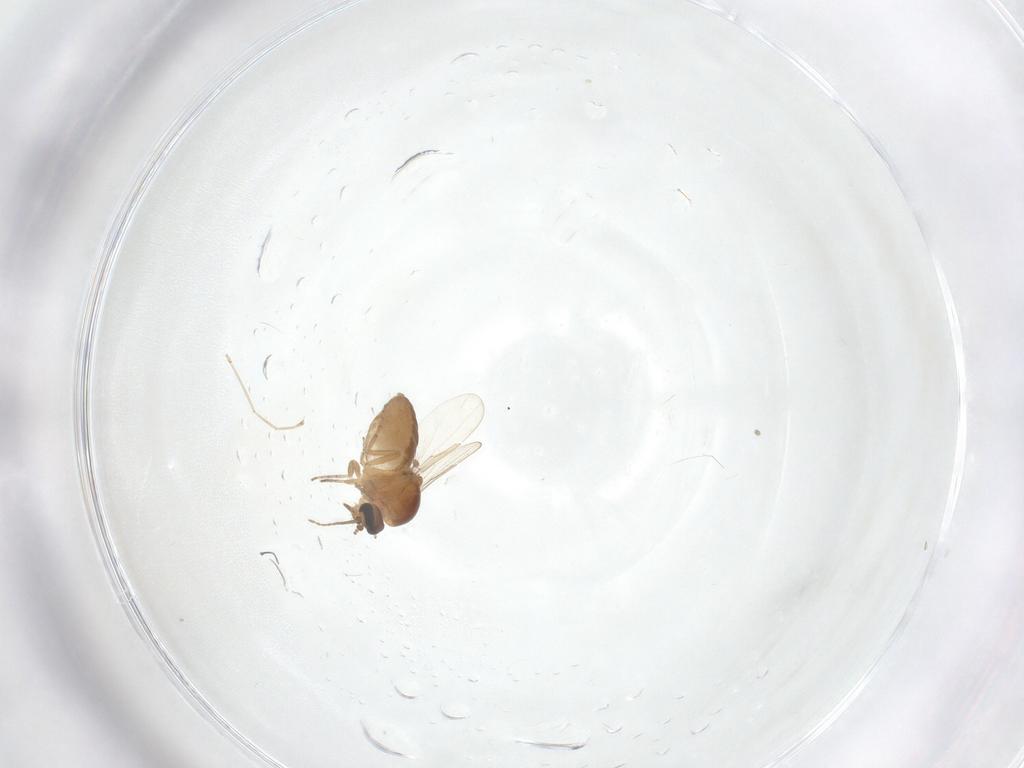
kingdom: Animalia
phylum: Arthropoda
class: Insecta
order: Diptera
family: Ceratopogonidae
